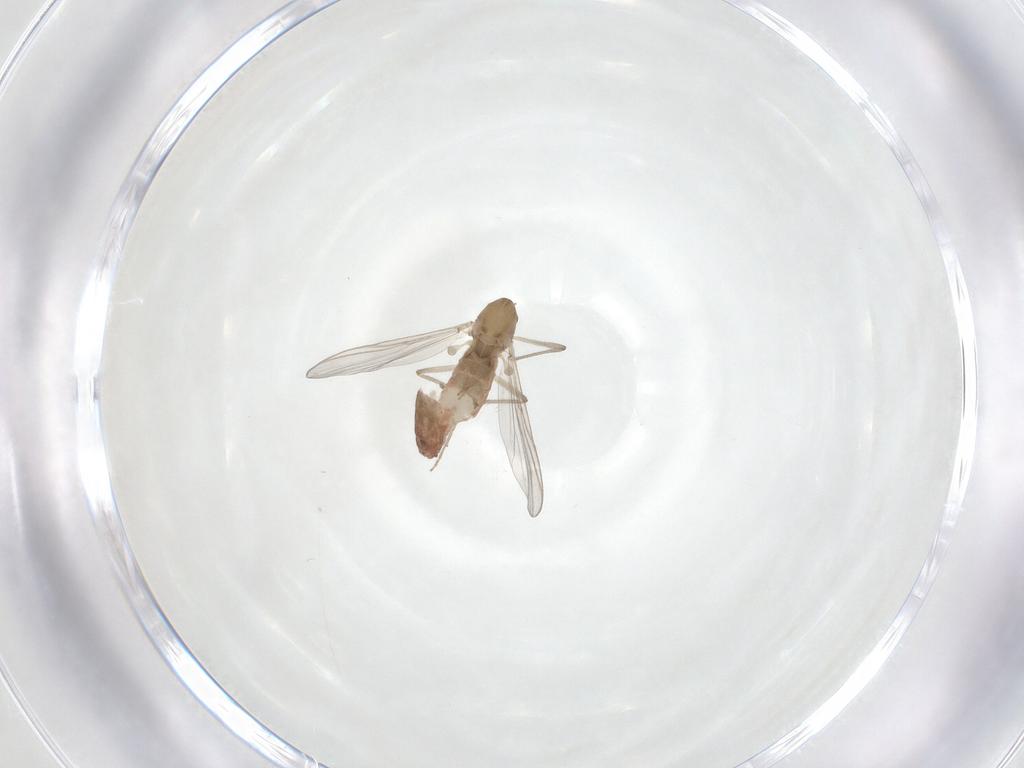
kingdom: Animalia
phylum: Arthropoda
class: Insecta
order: Diptera
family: Chironomidae
